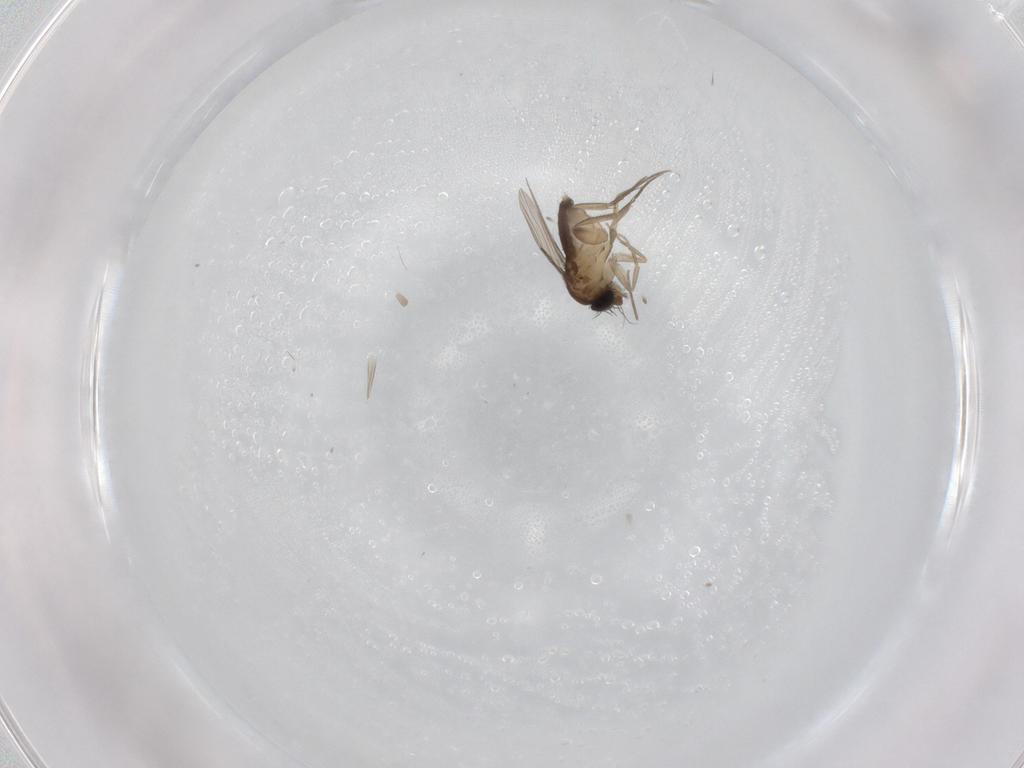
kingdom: Animalia
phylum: Arthropoda
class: Insecta
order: Diptera
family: Phoridae
